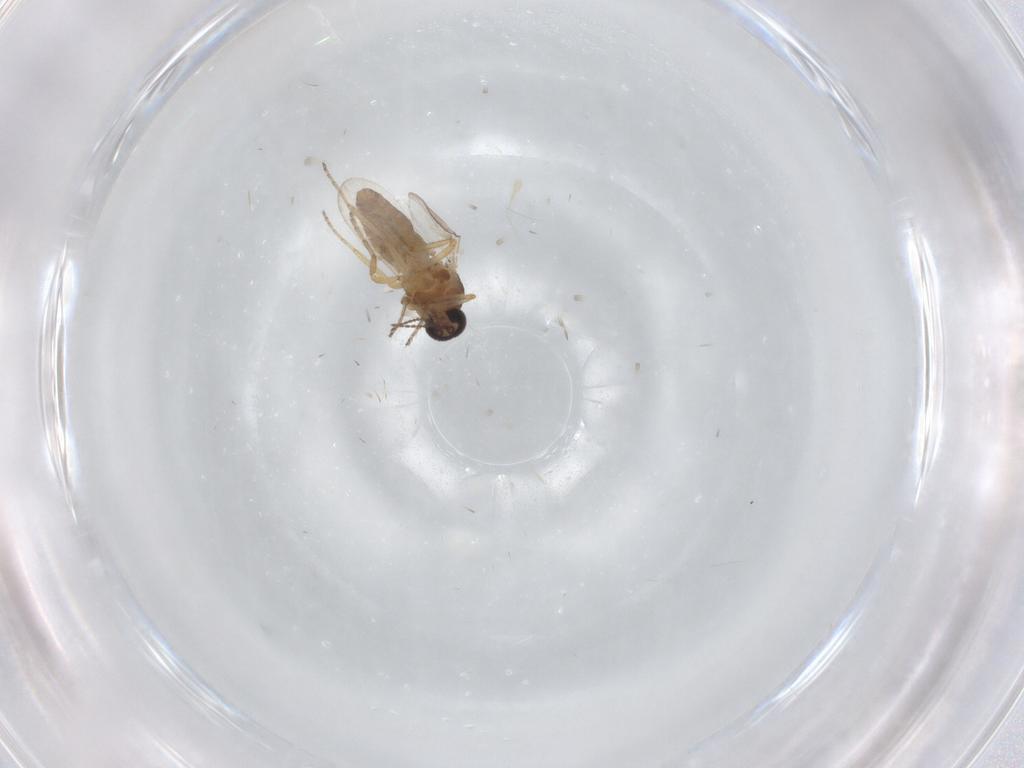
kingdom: Animalia
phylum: Arthropoda
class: Insecta
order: Diptera
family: Ceratopogonidae
